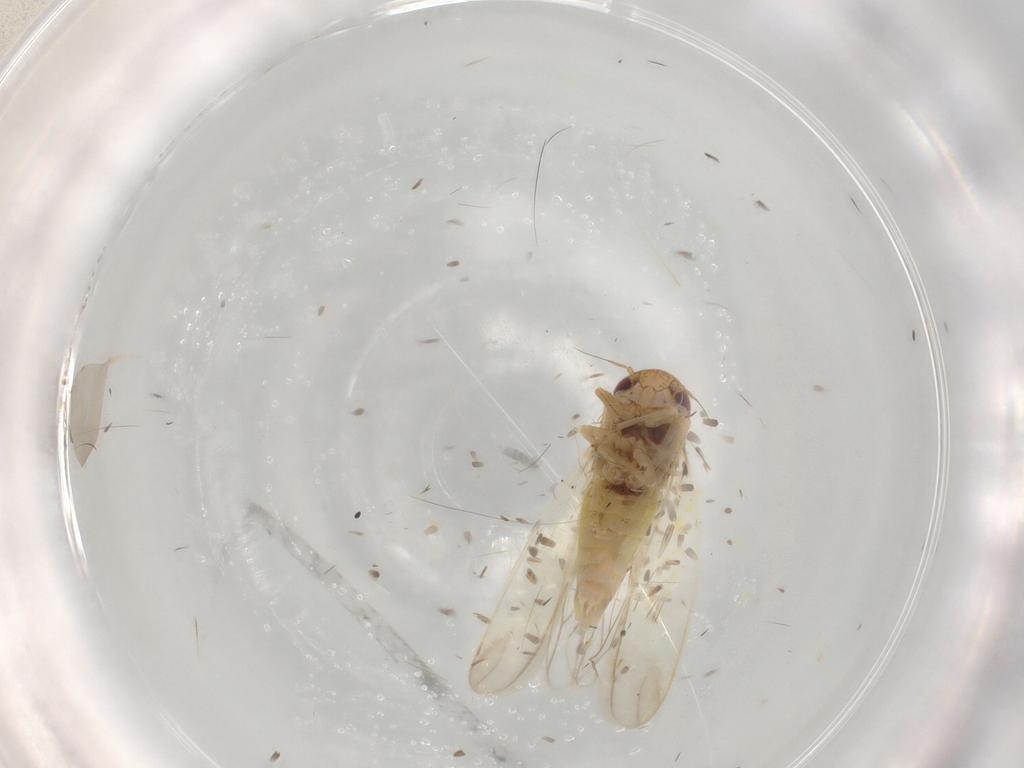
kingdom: Animalia
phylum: Arthropoda
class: Insecta
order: Hemiptera
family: Cicadellidae
